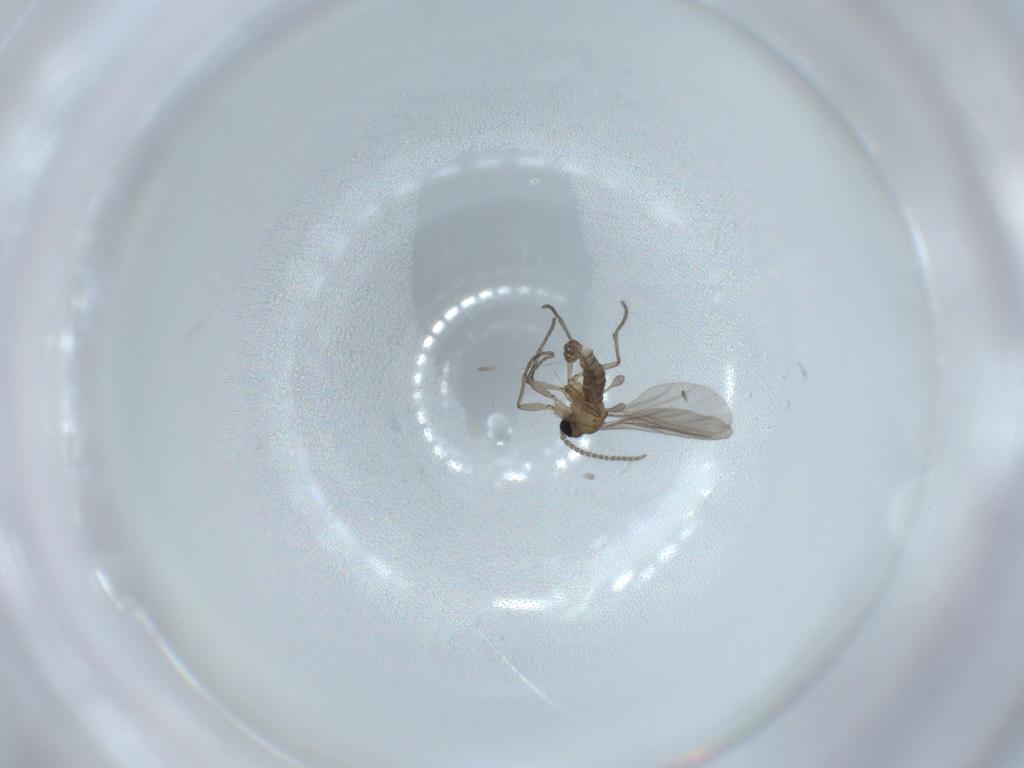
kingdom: Animalia
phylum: Arthropoda
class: Insecta
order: Diptera
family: Sciaridae
